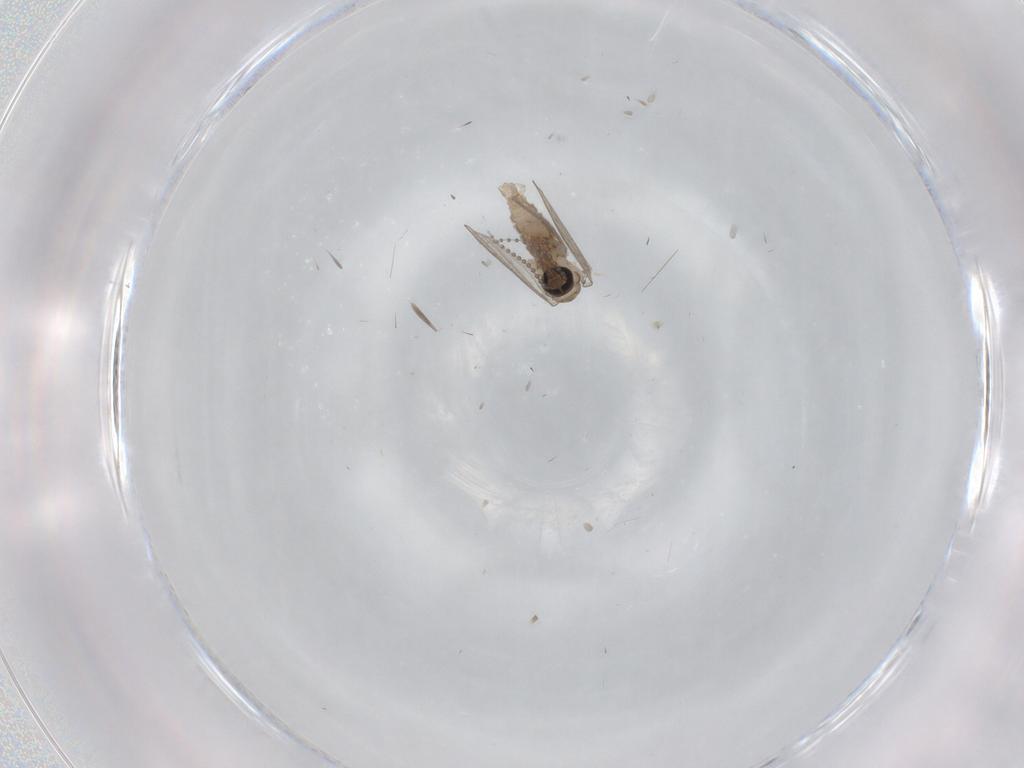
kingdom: Animalia
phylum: Arthropoda
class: Insecta
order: Diptera
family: Psychodidae
